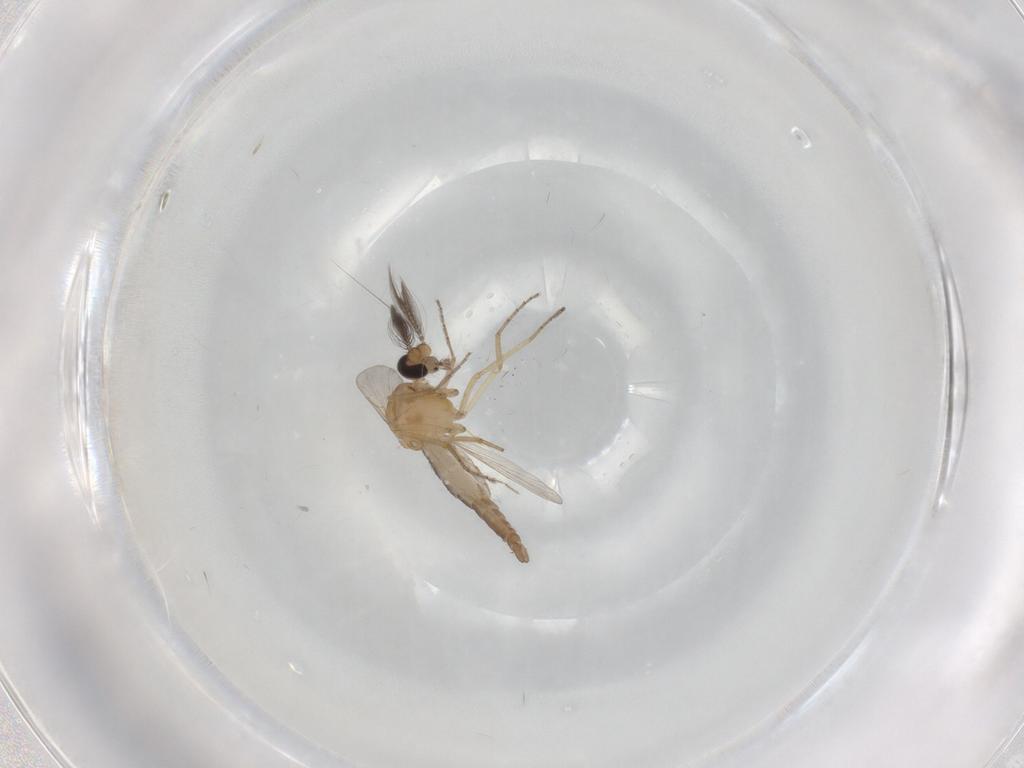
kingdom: Animalia
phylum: Arthropoda
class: Insecta
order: Diptera
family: Ceratopogonidae
